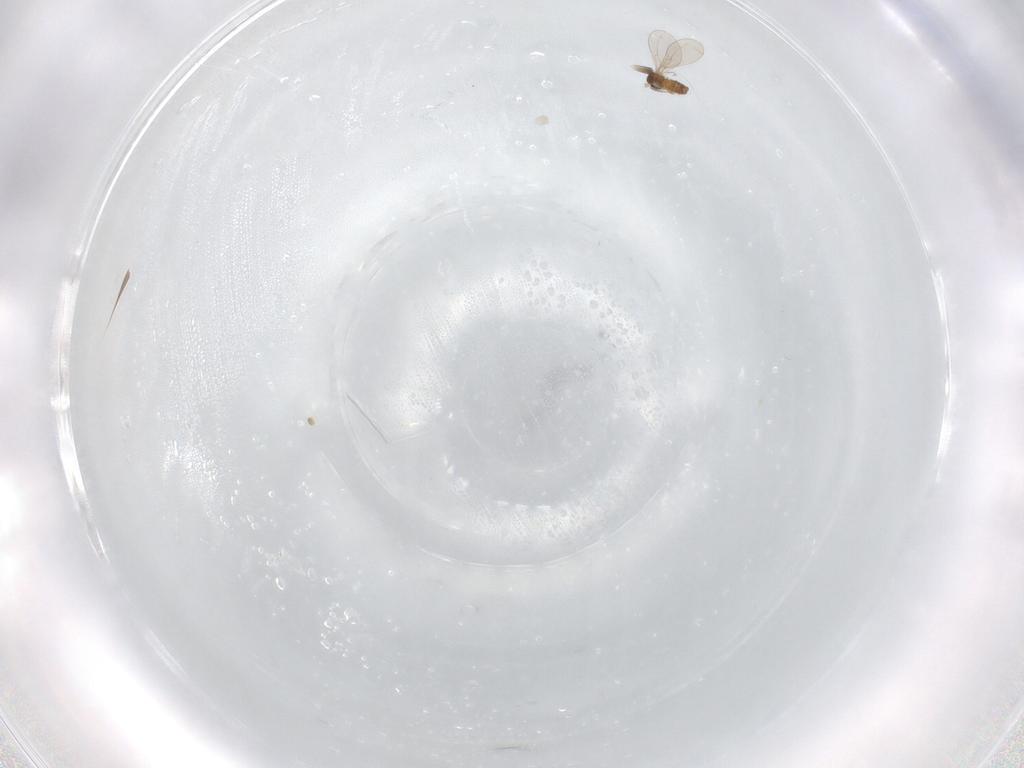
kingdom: Animalia
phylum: Arthropoda
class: Insecta
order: Diptera
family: Cecidomyiidae
